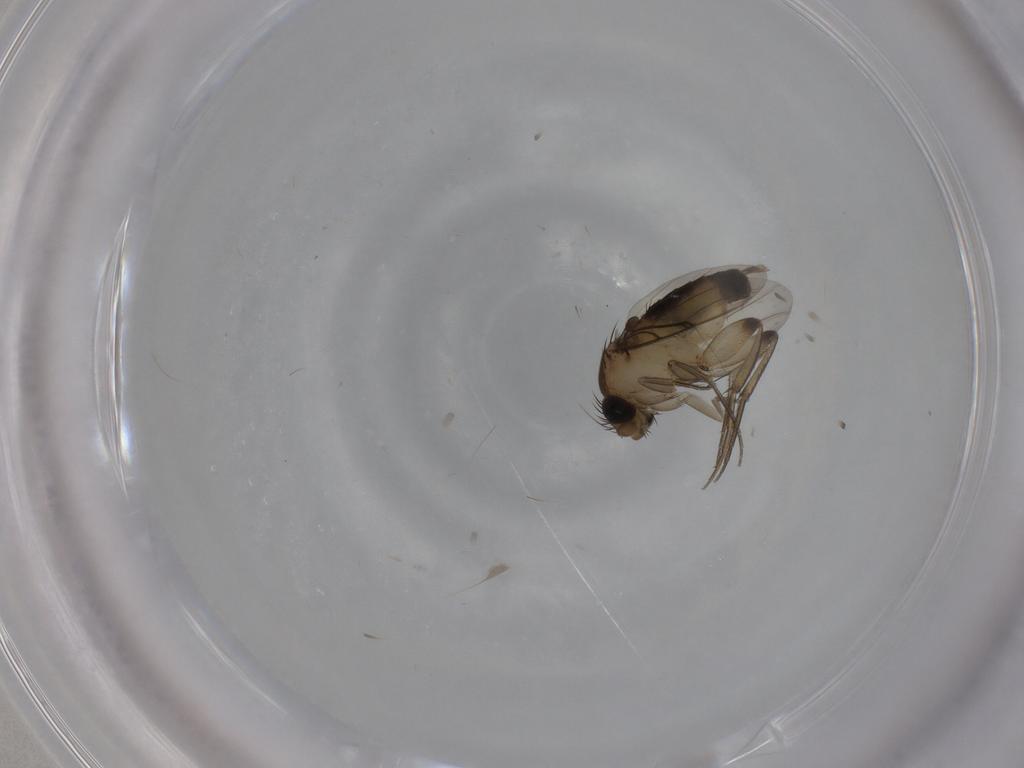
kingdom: Animalia
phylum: Arthropoda
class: Insecta
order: Diptera
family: Phoridae
